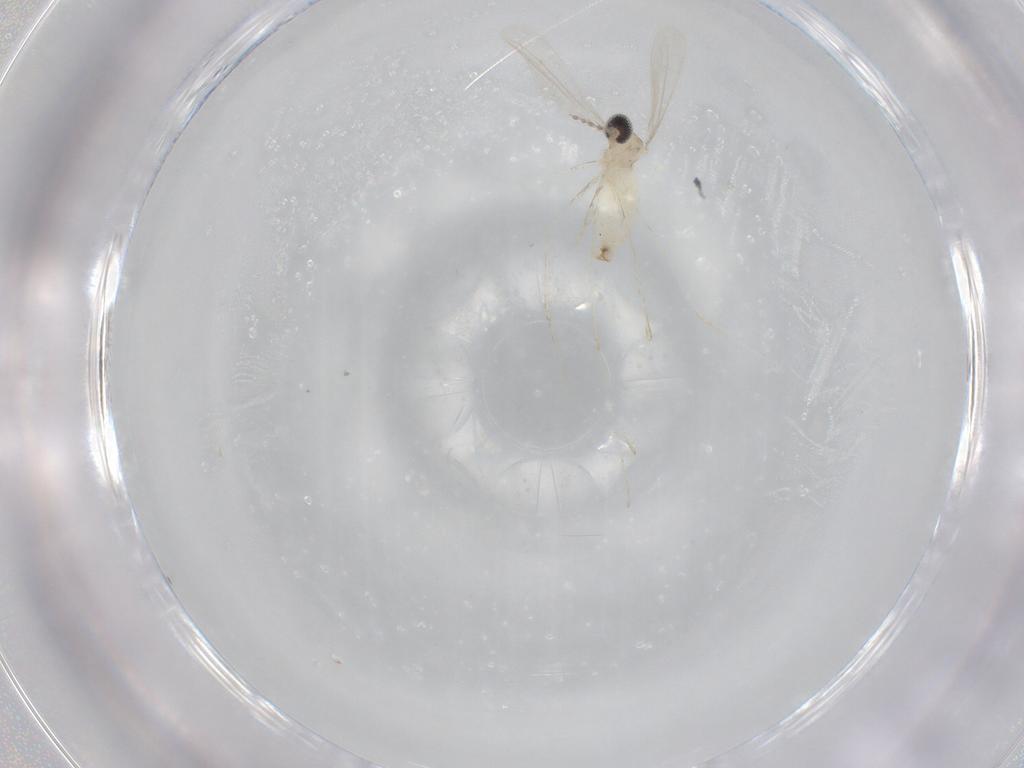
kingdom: Animalia
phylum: Arthropoda
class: Insecta
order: Diptera
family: Cecidomyiidae
